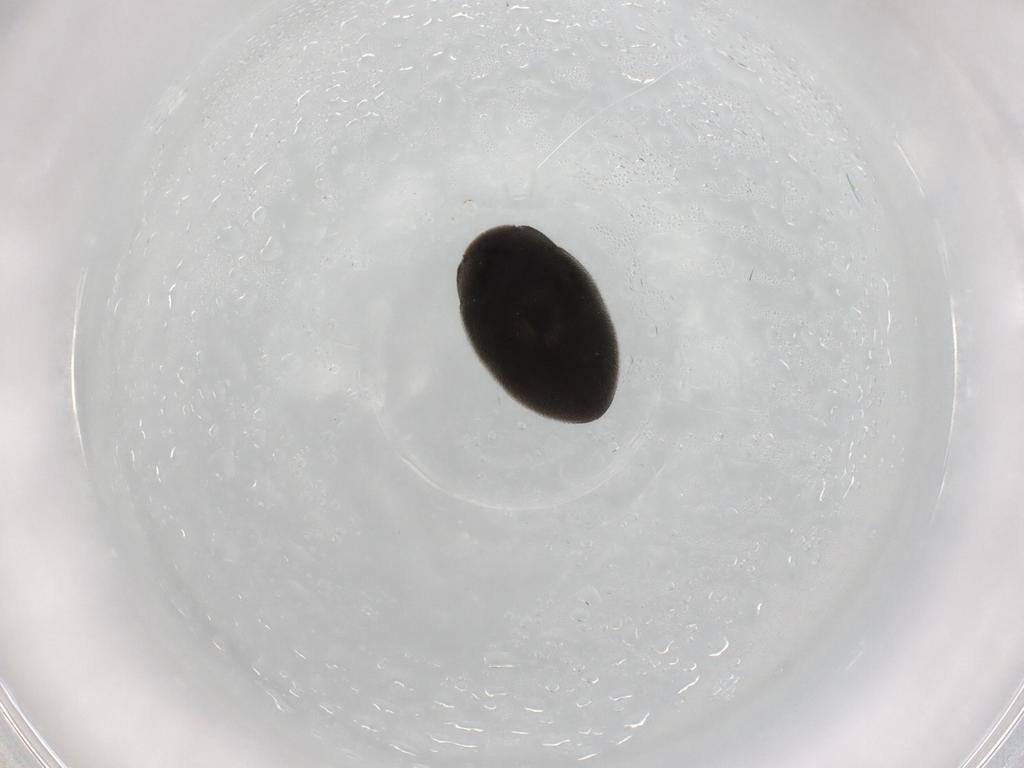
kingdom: Animalia
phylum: Arthropoda
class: Insecta
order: Coleoptera
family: Limnichidae
